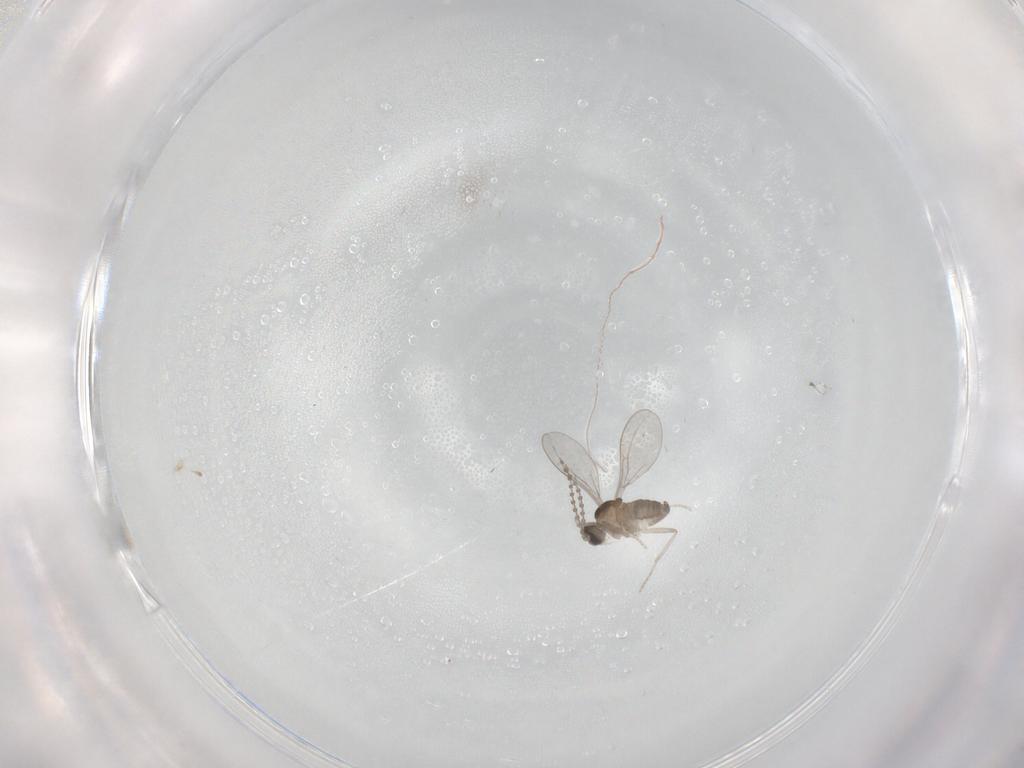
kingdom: Animalia
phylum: Arthropoda
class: Insecta
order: Diptera
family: Cecidomyiidae
